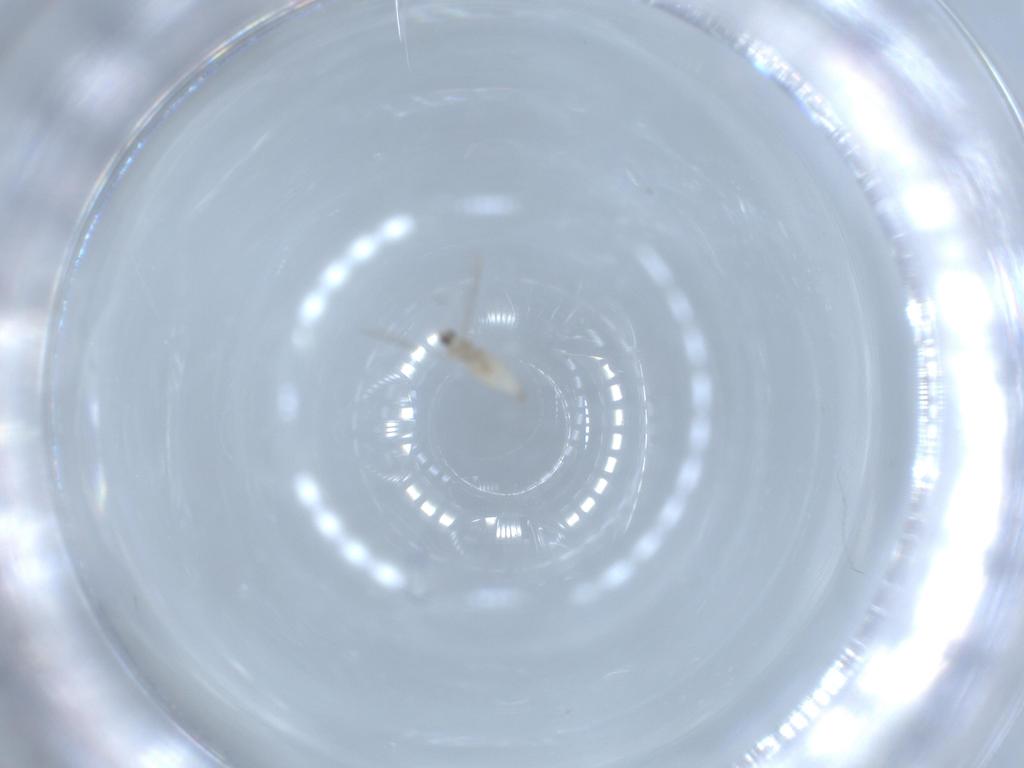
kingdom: Animalia
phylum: Arthropoda
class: Insecta
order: Diptera
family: Cecidomyiidae
